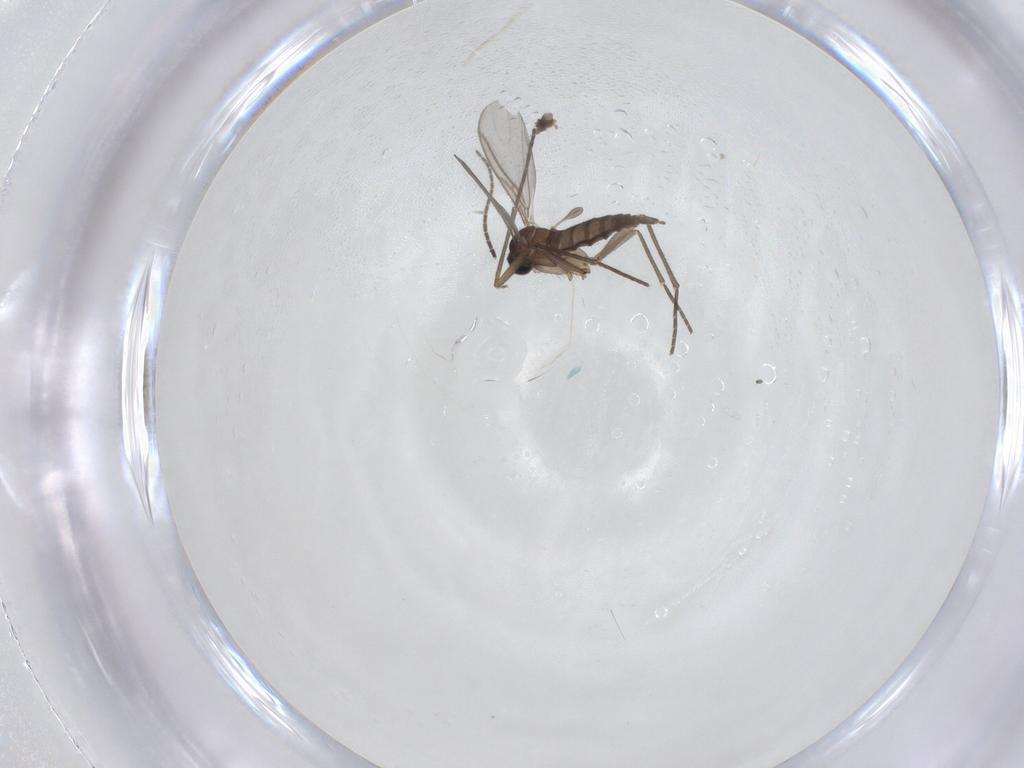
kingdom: Animalia
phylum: Arthropoda
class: Insecta
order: Diptera
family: Sciaridae
